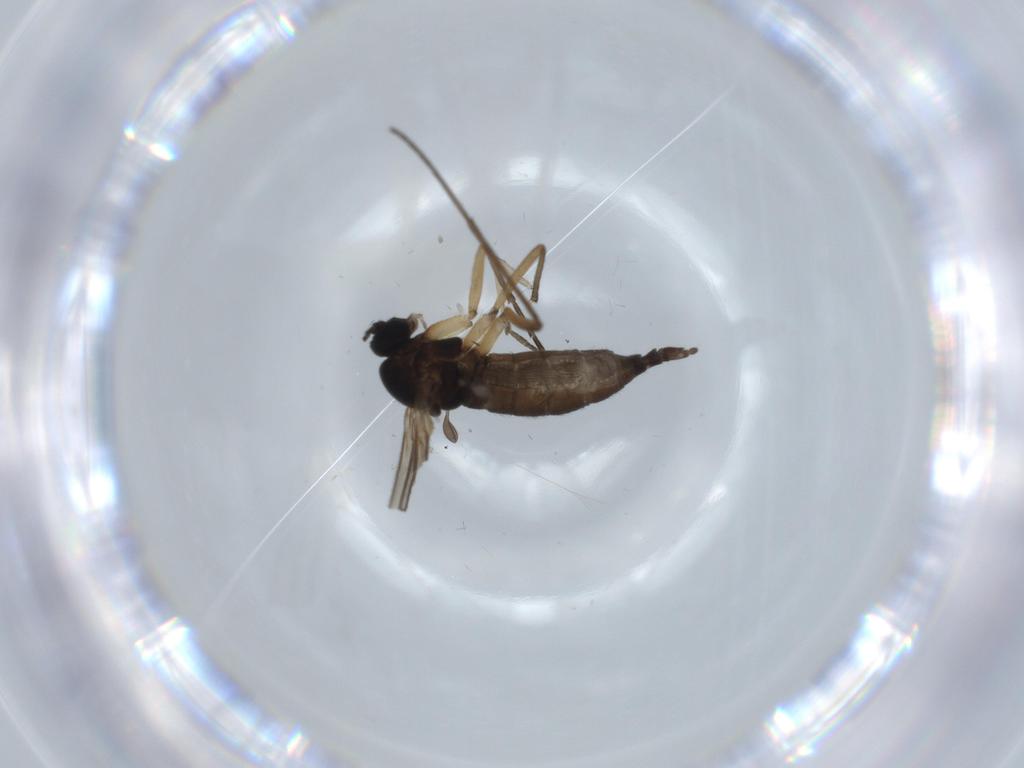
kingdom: Animalia
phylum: Arthropoda
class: Insecta
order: Diptera
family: Sciaridae
